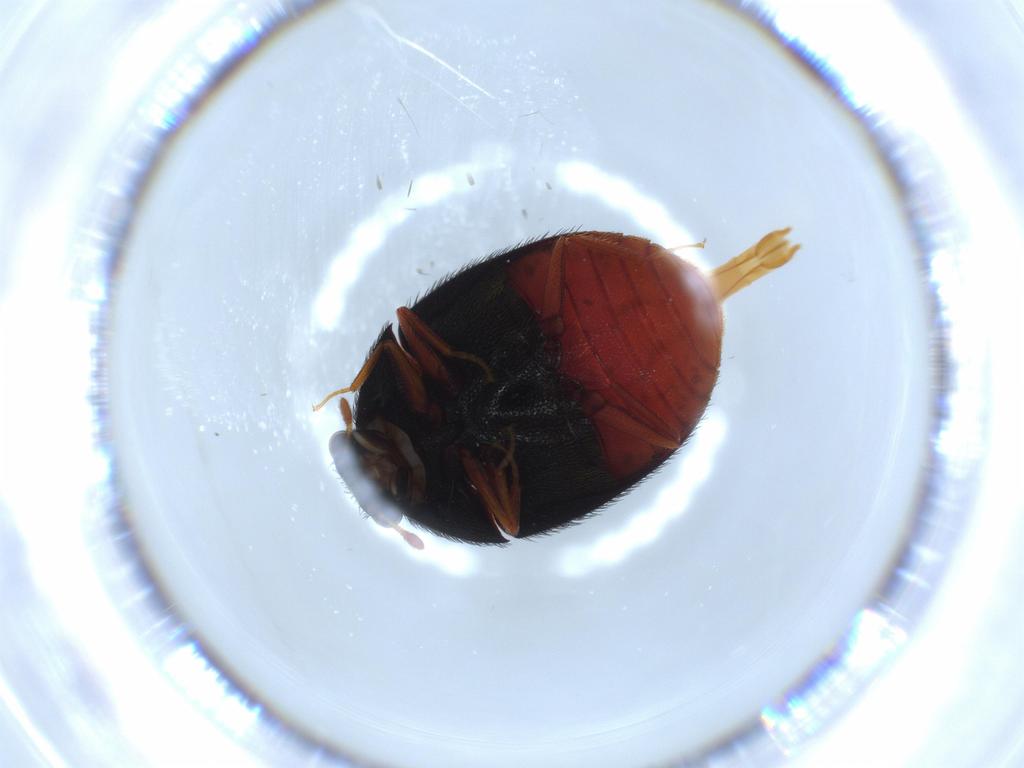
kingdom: Animalia
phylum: Arthropoda
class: Insecta
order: Coleoptera
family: Dermestidae
